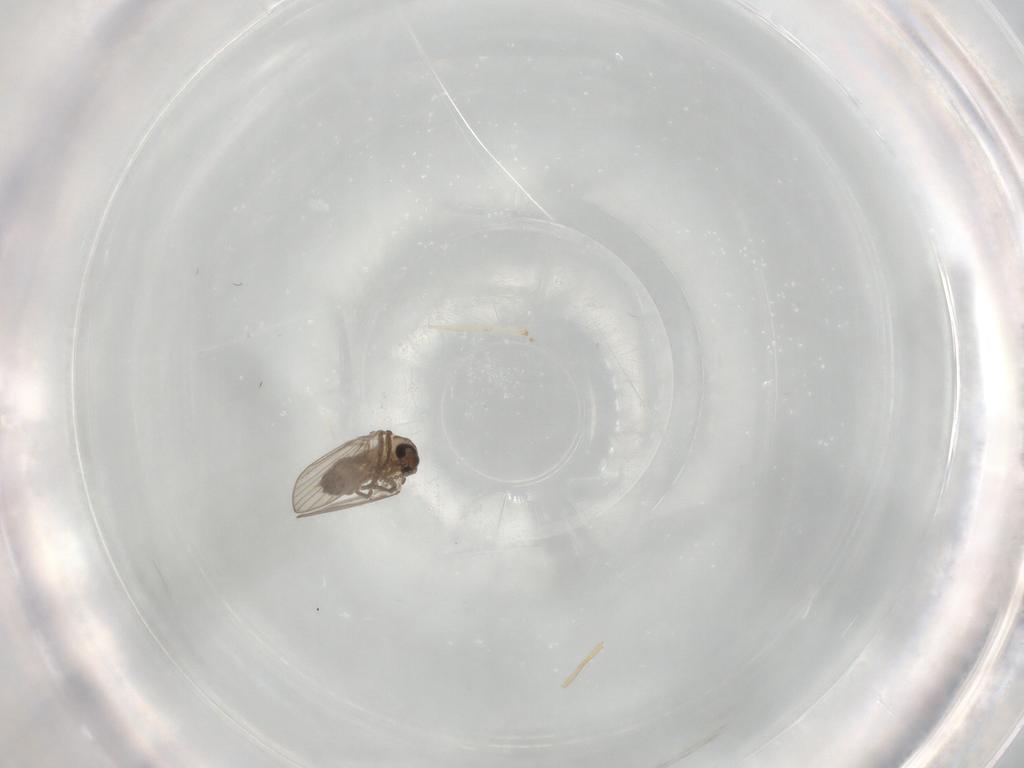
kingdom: Animalia
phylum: Arthropoda
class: Insecta
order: Diptera
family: Psychodidae
